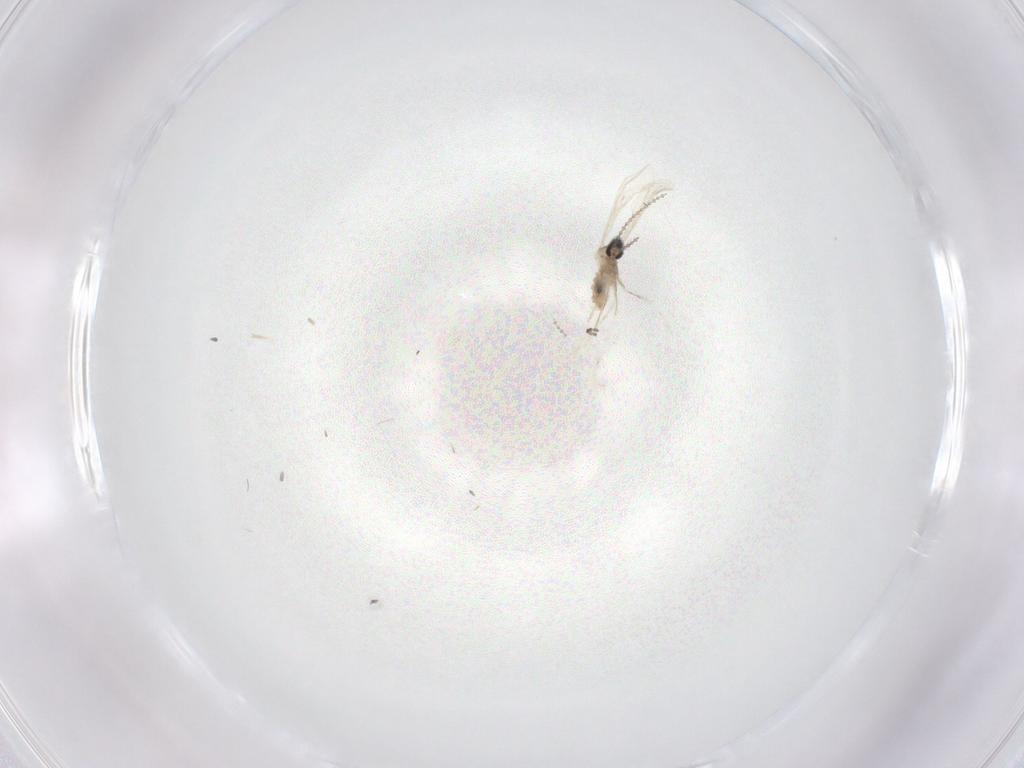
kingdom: Animalia
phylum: Arthropoda
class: Insecta
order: Diptera
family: Cecidomyiidae
